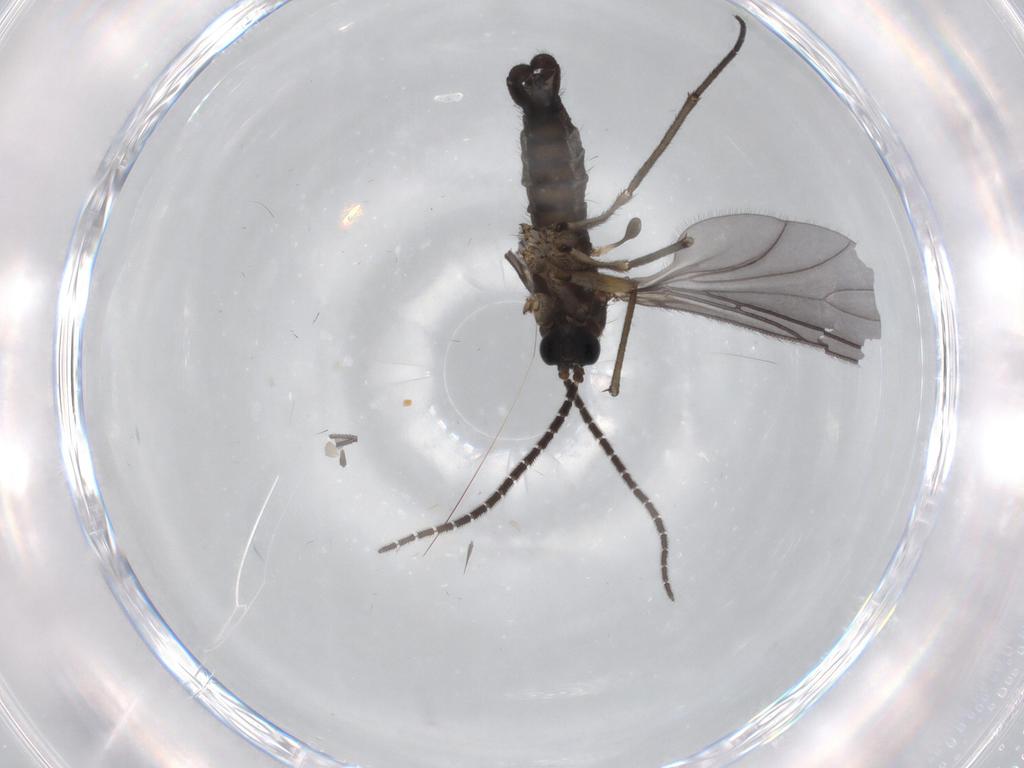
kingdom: Animalia
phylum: Arthropoda
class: Insecta
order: Diptera
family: Sciaridae
